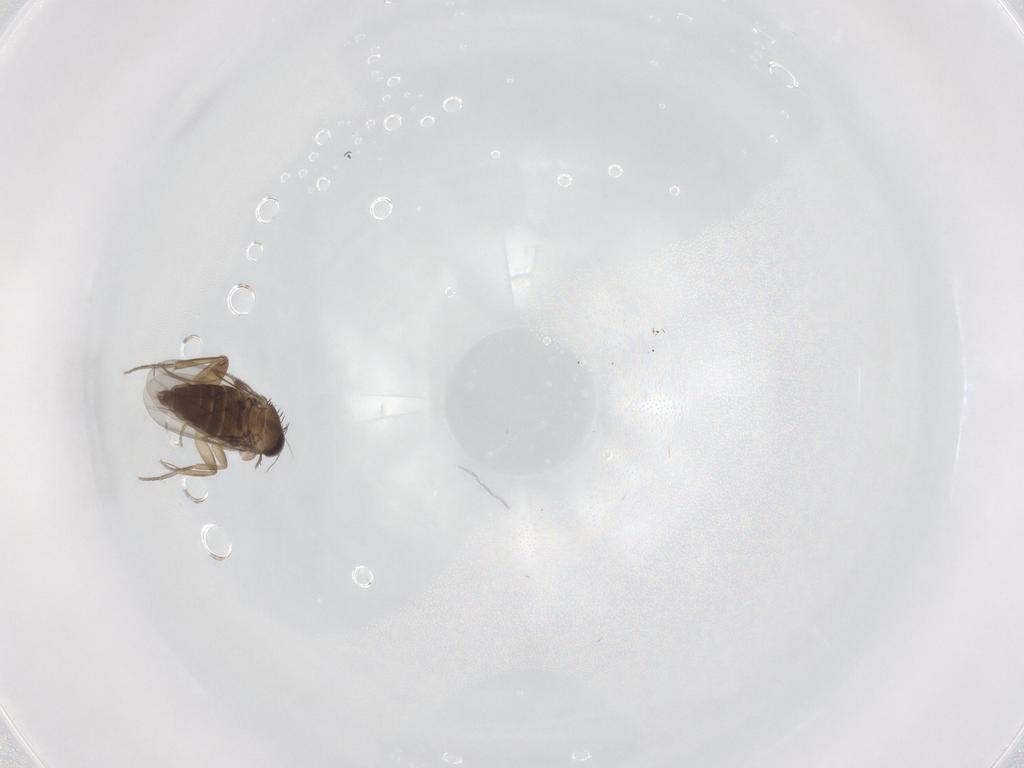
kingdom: Animalia
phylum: Arthropoda
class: Insecta
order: Diptera
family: Phoridae
